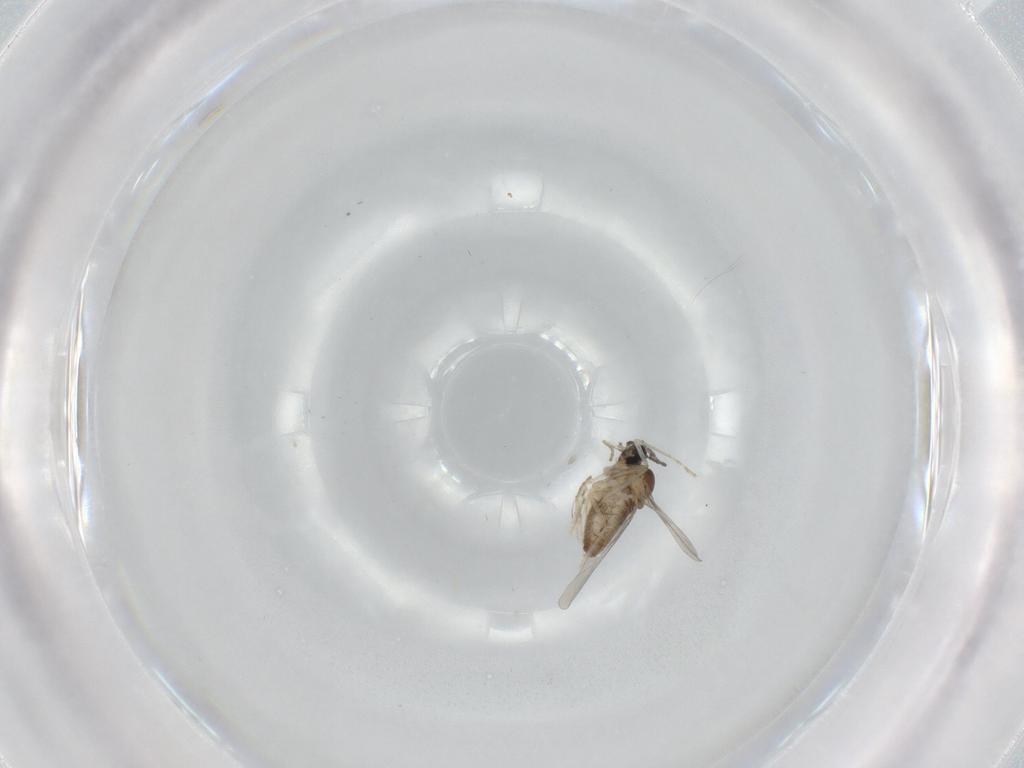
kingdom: Animalia
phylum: Arthropoda
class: Insecta
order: Diptera
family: Cecidomyiidae
